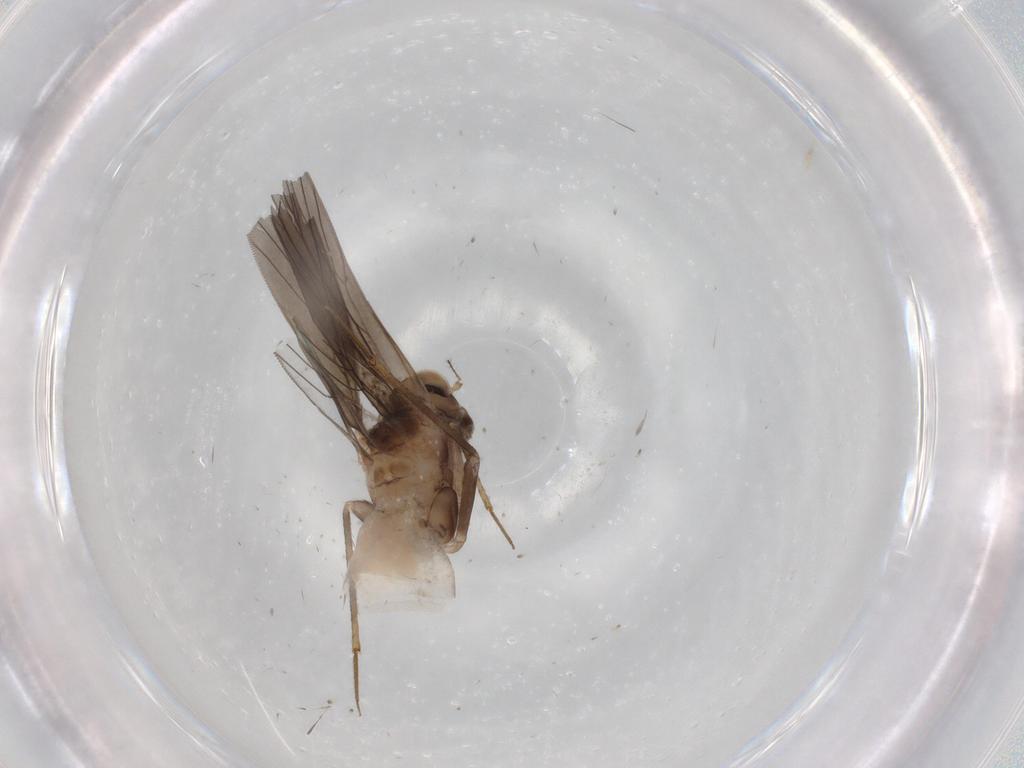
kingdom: Animalia
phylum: Arthropoda
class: Insecta
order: Psocodea
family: Lepidopsocidae
